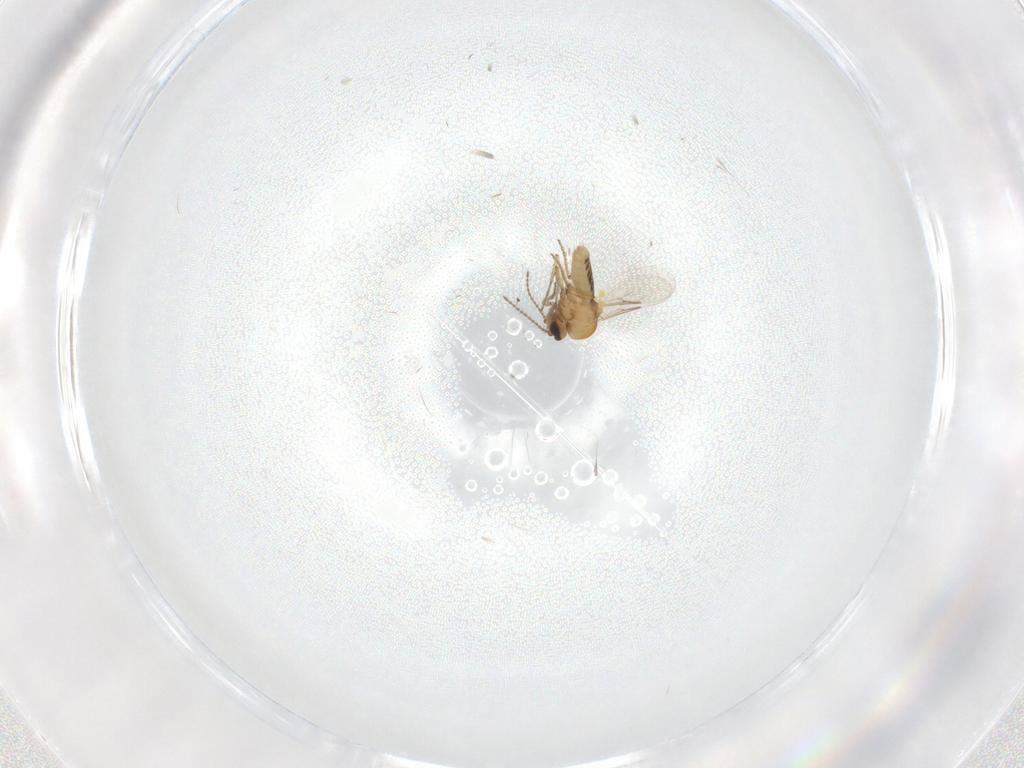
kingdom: Animalia
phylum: Arthropoda
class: Insecta
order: Diptera
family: Ceratopogonidae
